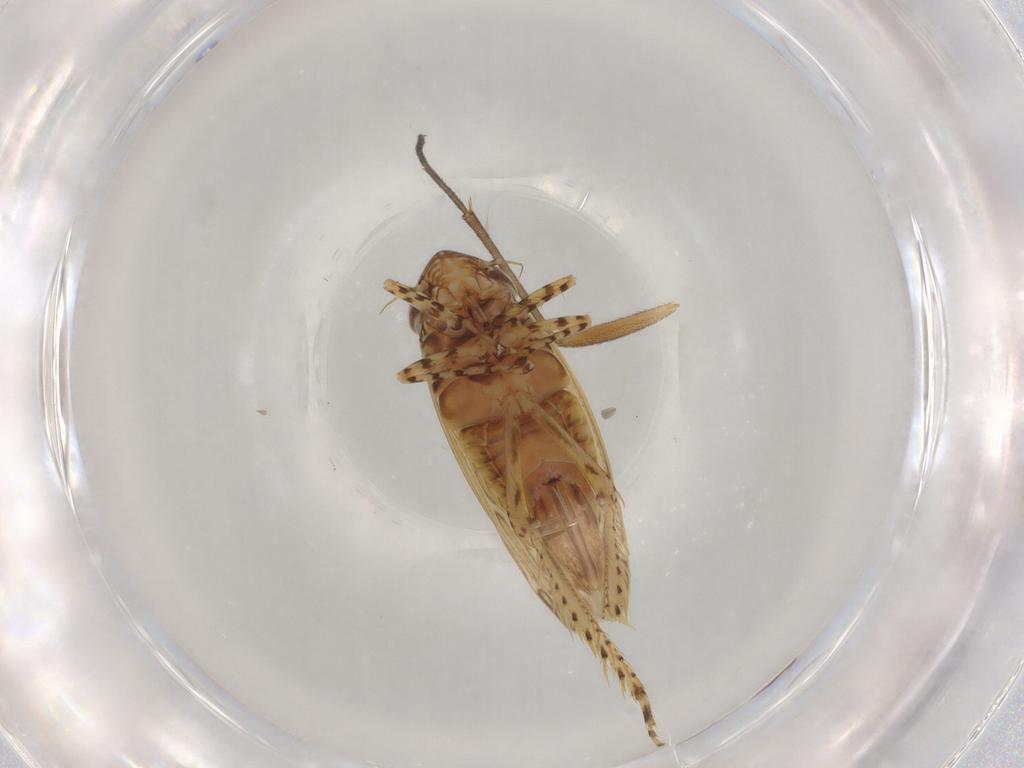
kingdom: Animalia
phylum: Arthropoda
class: Insecta
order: Hemiptera
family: Cicadellidae
